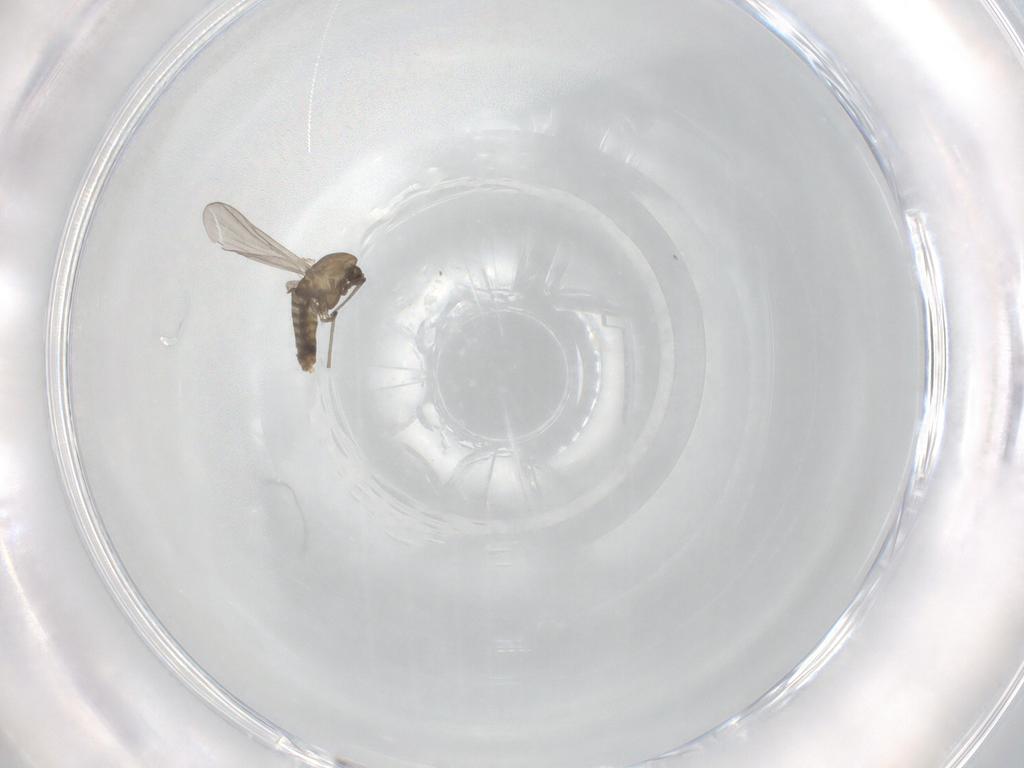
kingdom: Animalia
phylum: Arthropoda
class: Insecta
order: Diptera
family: Chironomidae
